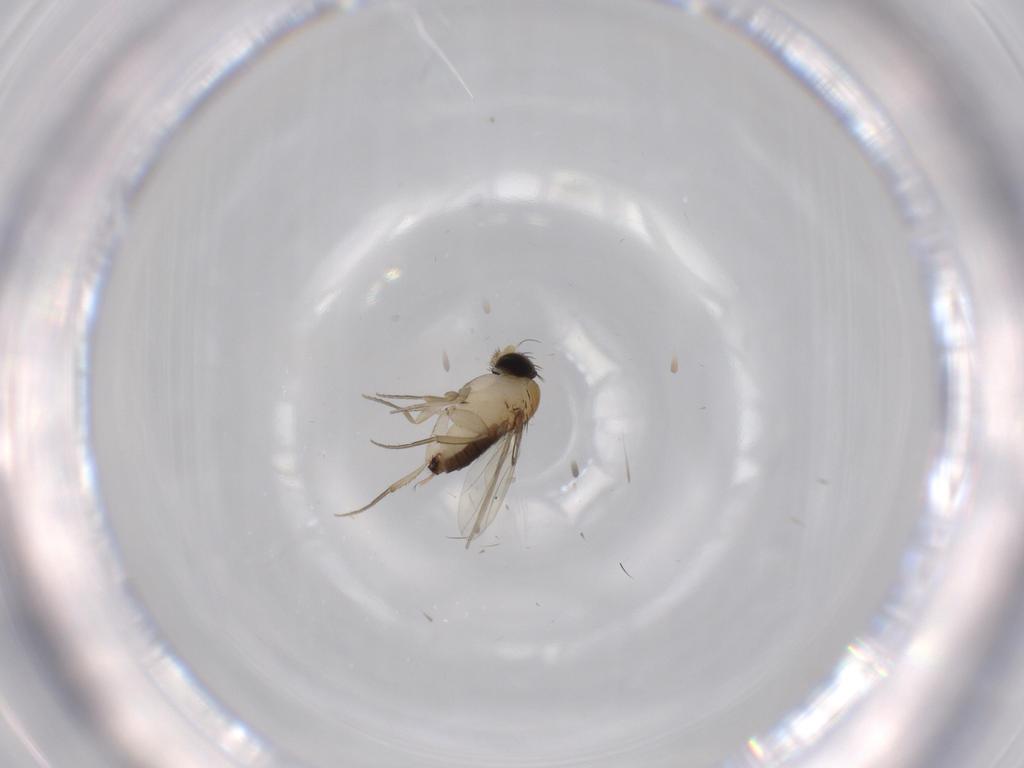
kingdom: Animalia
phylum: Arthropoda
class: Insecta
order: Diptera
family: Phoridae
